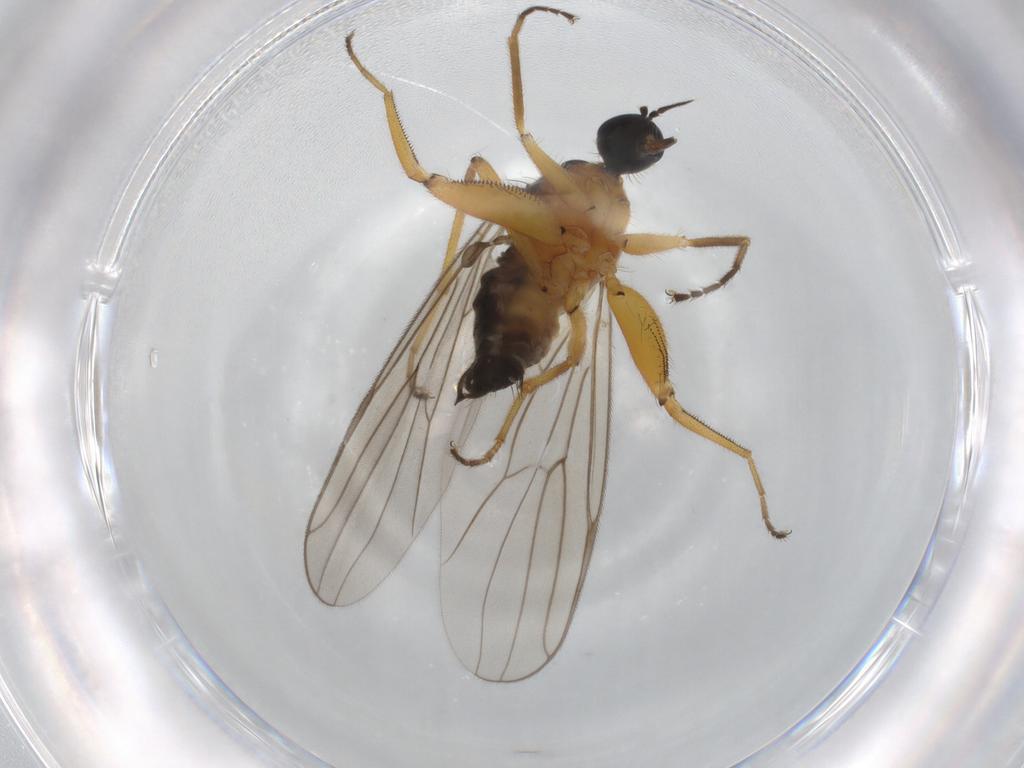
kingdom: Animalia
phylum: Arthropoda
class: Insecta
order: Diptera
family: Hybotidae
